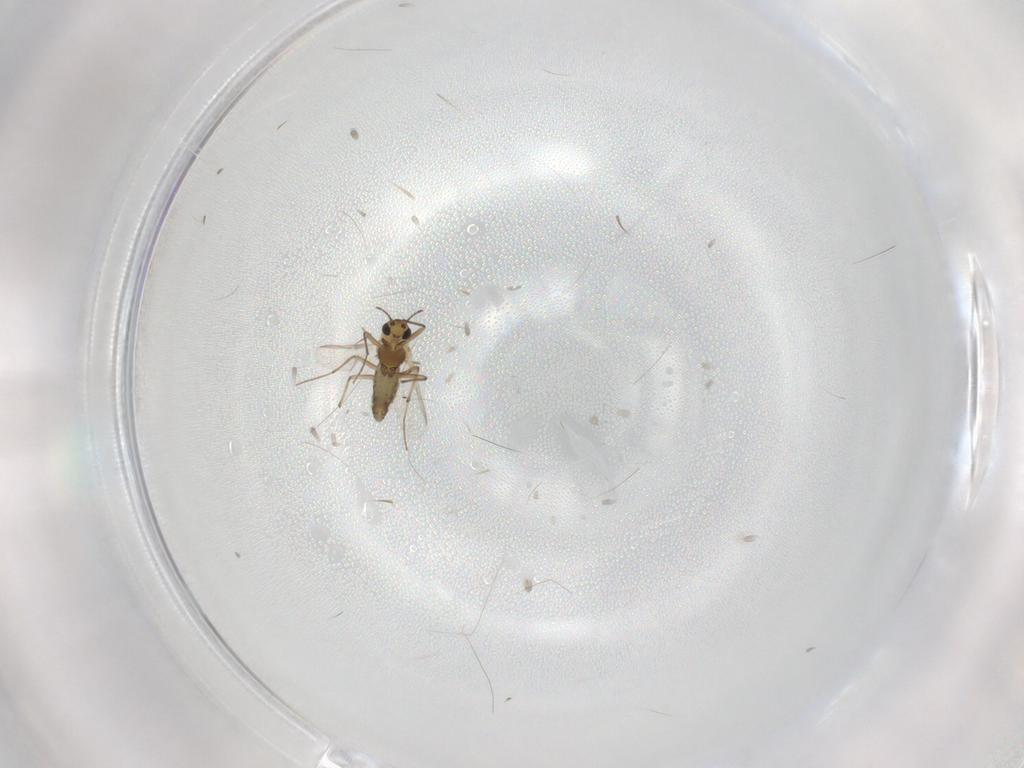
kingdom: Animalia
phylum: Arthropoda
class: Insecta
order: Diptera
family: Chironomidae
